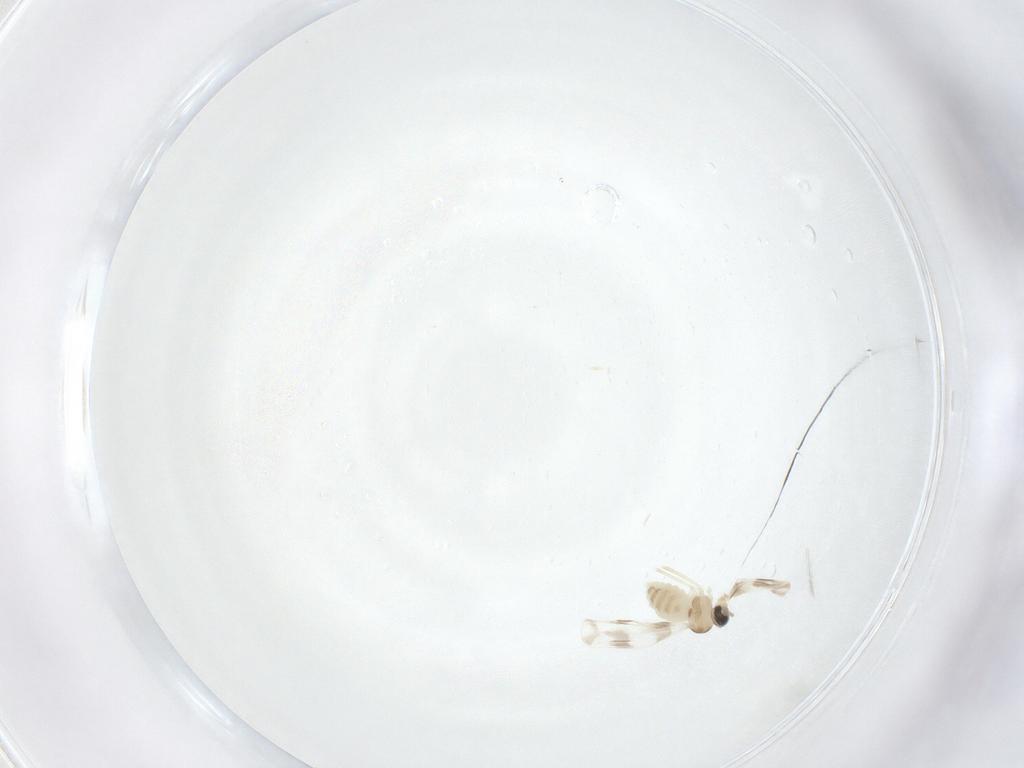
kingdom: Animalia
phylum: Arthropoda
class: Insecta
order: Diptera
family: Cecidomyiidae
